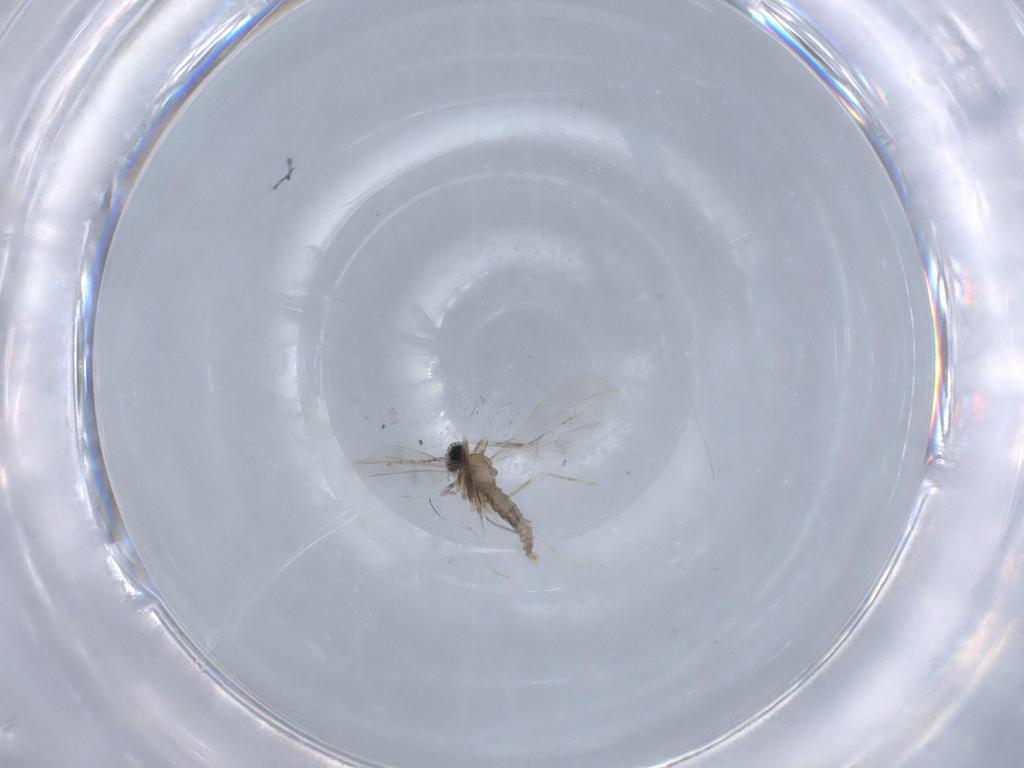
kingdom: Animalia
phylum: Arthropoda
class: Insecta
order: Diptera
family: Cecidomyiidae
